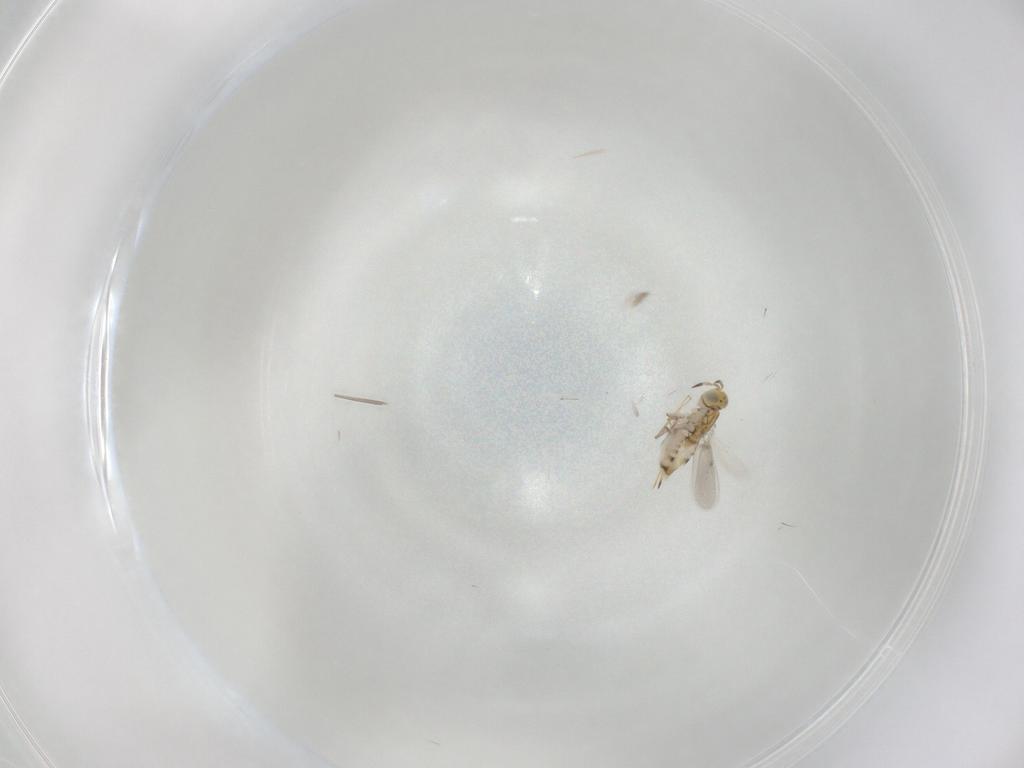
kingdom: Animalia
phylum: Arthropoda
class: Insecta
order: Hymenoptera
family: Aphelinidae
